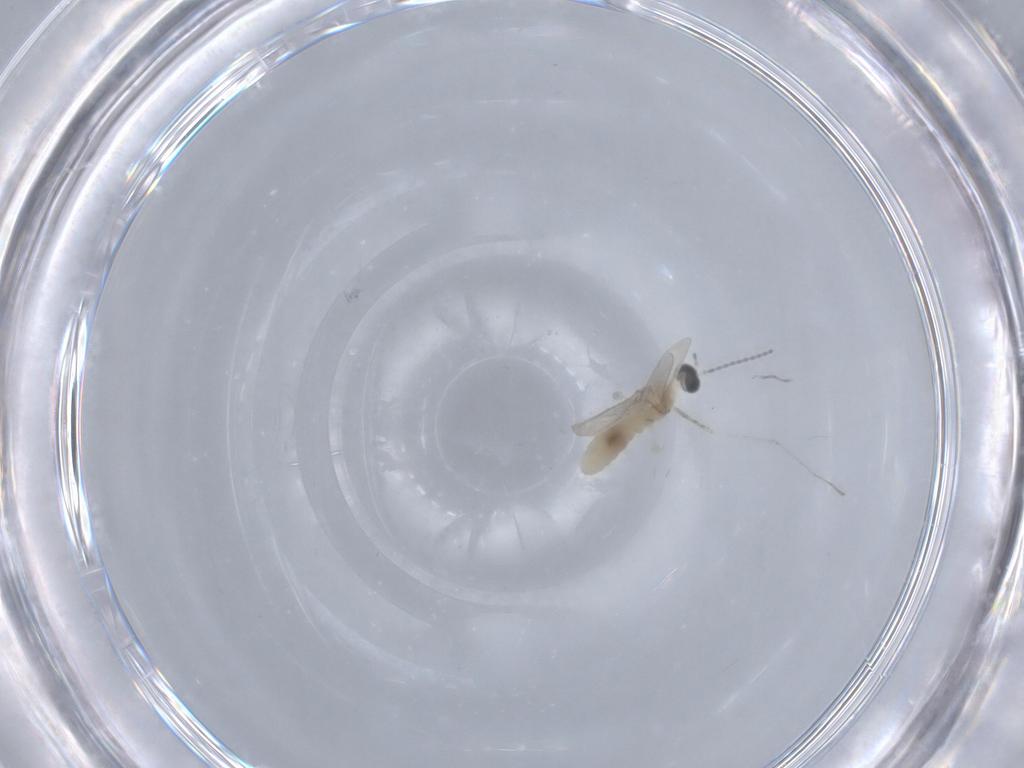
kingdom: Animalia
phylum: Arthropoda
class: Insecta
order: Diptera
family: Cecidomyiidae
